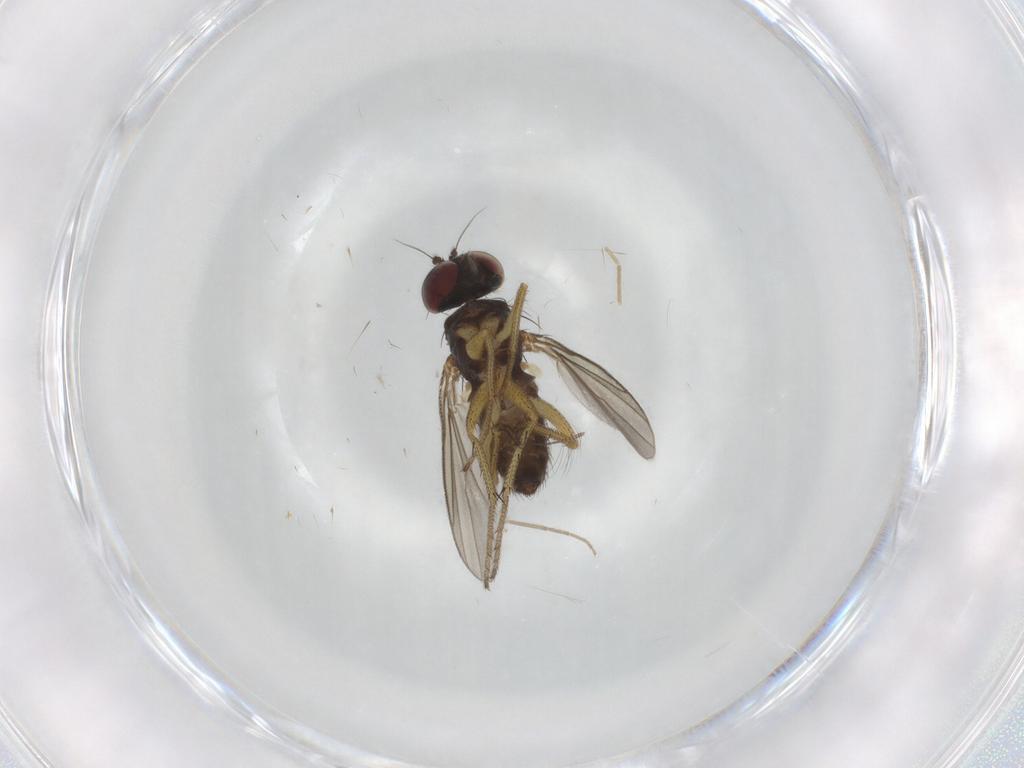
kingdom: Animalia
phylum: Arthropoda
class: Insecta
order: Diptera
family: Chironomidae
